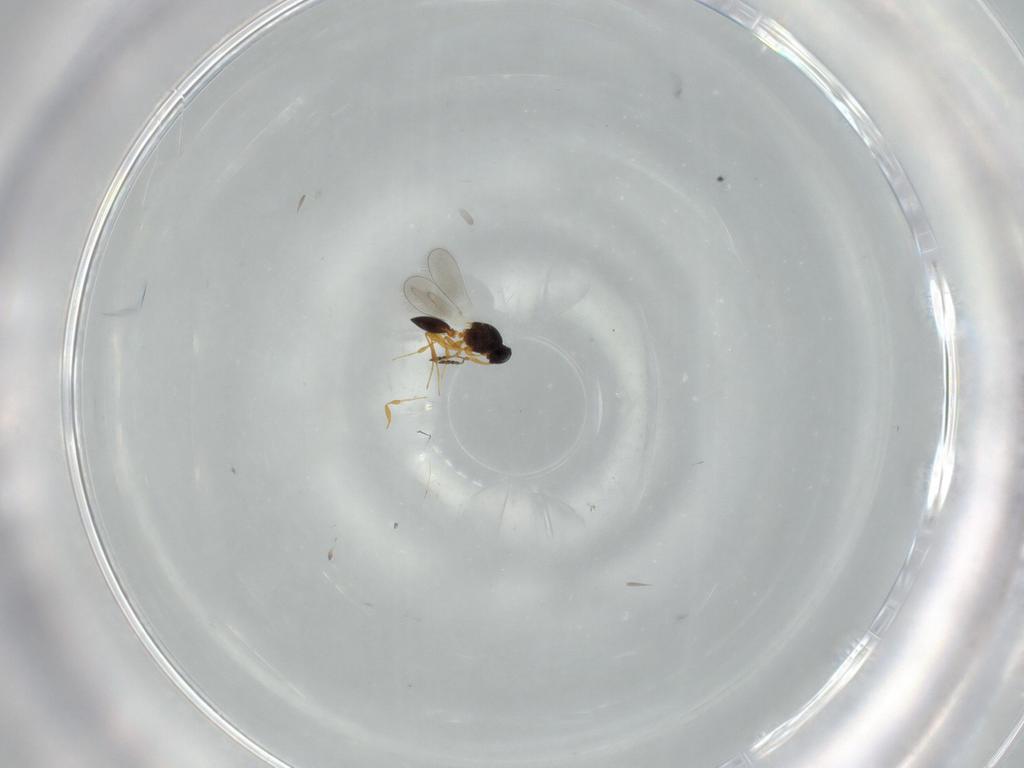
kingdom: Animalia
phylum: Arthropoda
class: Insecta
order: Hymenoptera
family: Platygastridae
